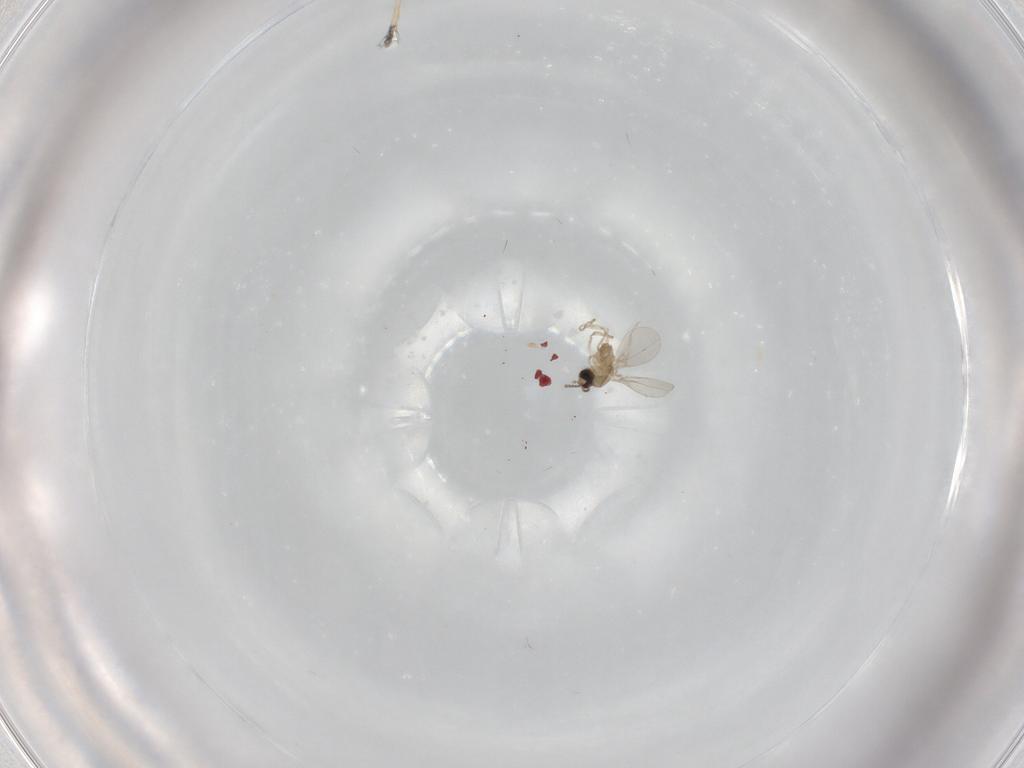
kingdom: Animalia
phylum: Arthropoda
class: Insecta
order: Diptera
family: Cecidomyiidae
